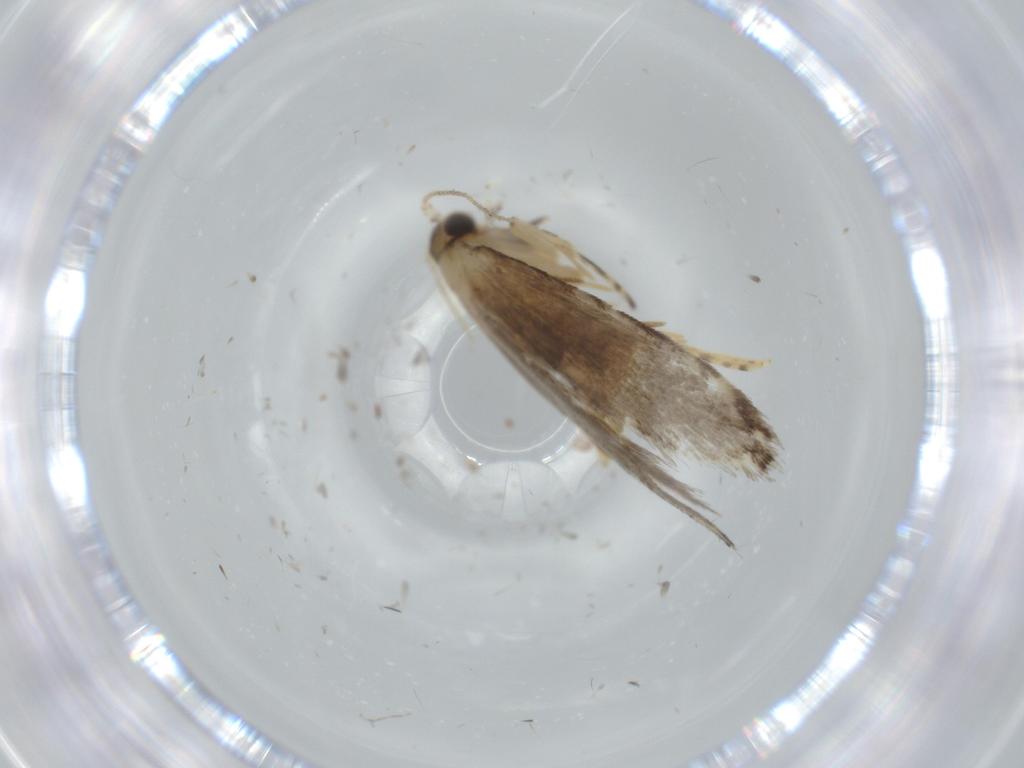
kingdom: Animalia
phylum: Arthropoda
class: Insecta
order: Lepidoptera
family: Tineidae
